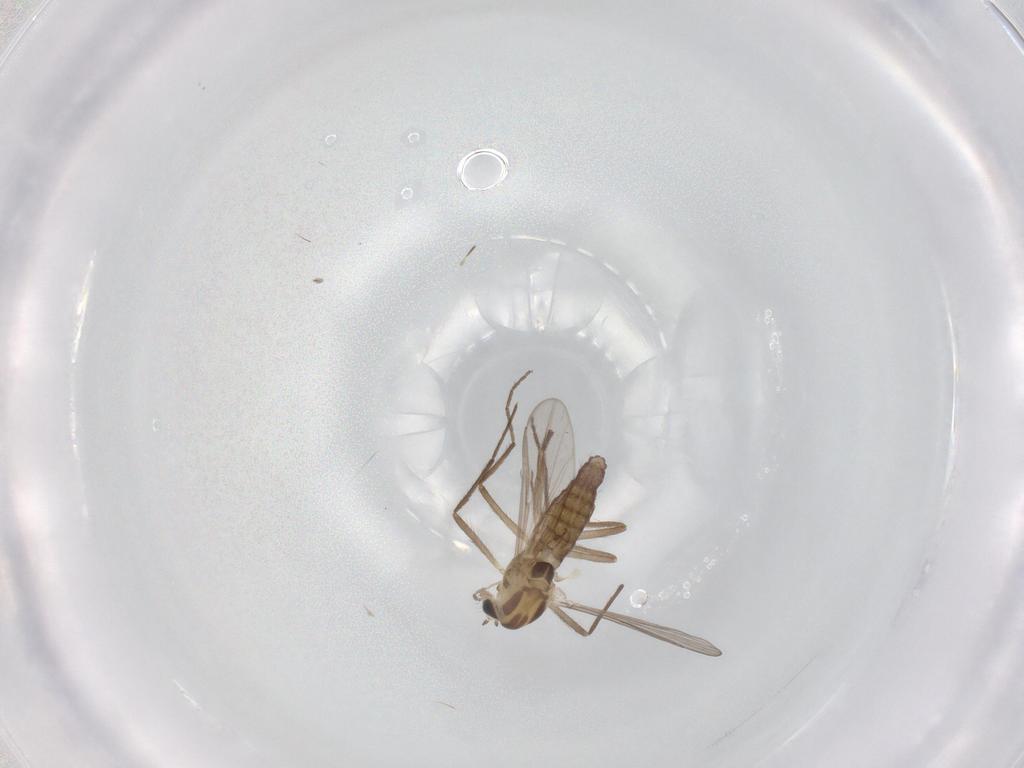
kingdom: Animalia
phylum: Arthropoda
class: Insecta
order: Diptera
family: Chironomidae
